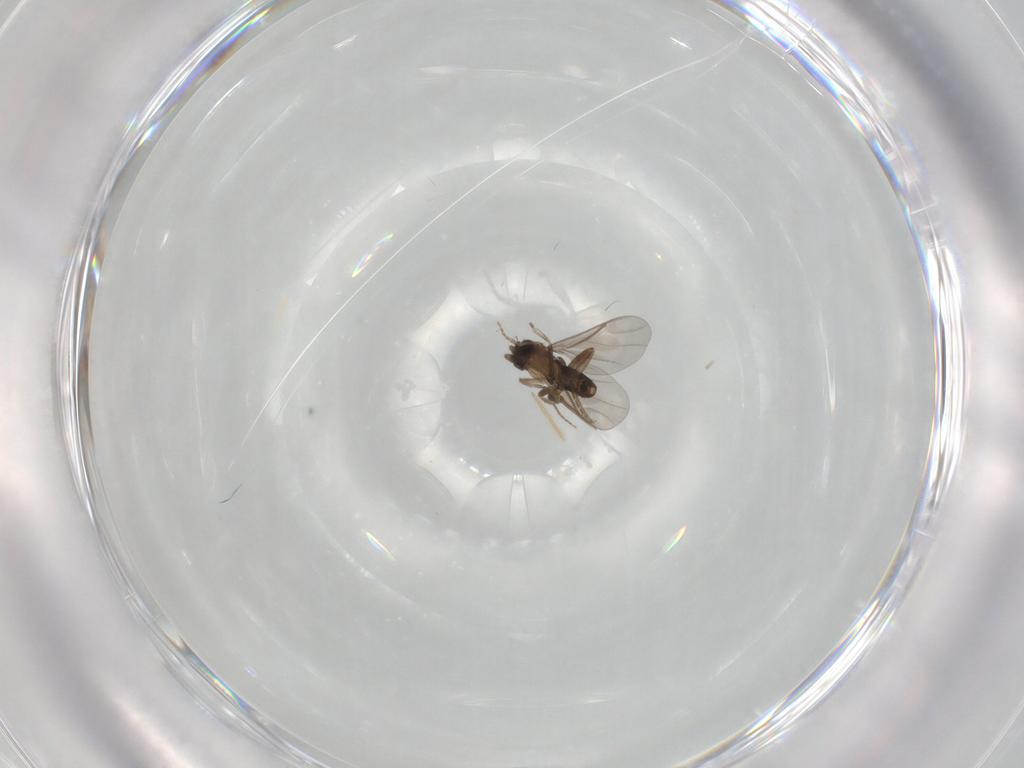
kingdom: Animalia
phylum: Arthropoda
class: Insecta
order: Diptera
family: Chironomidae
